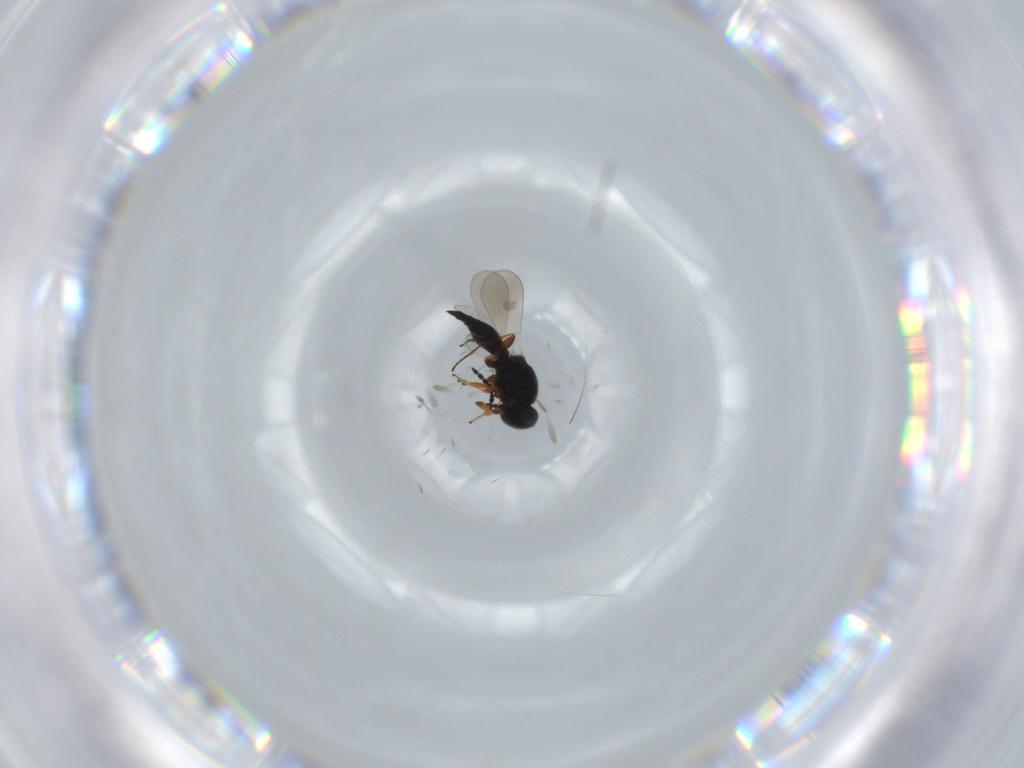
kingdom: Animalia
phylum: Arthropoda
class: Insecta
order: Hymenoptera
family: Platygastridae
